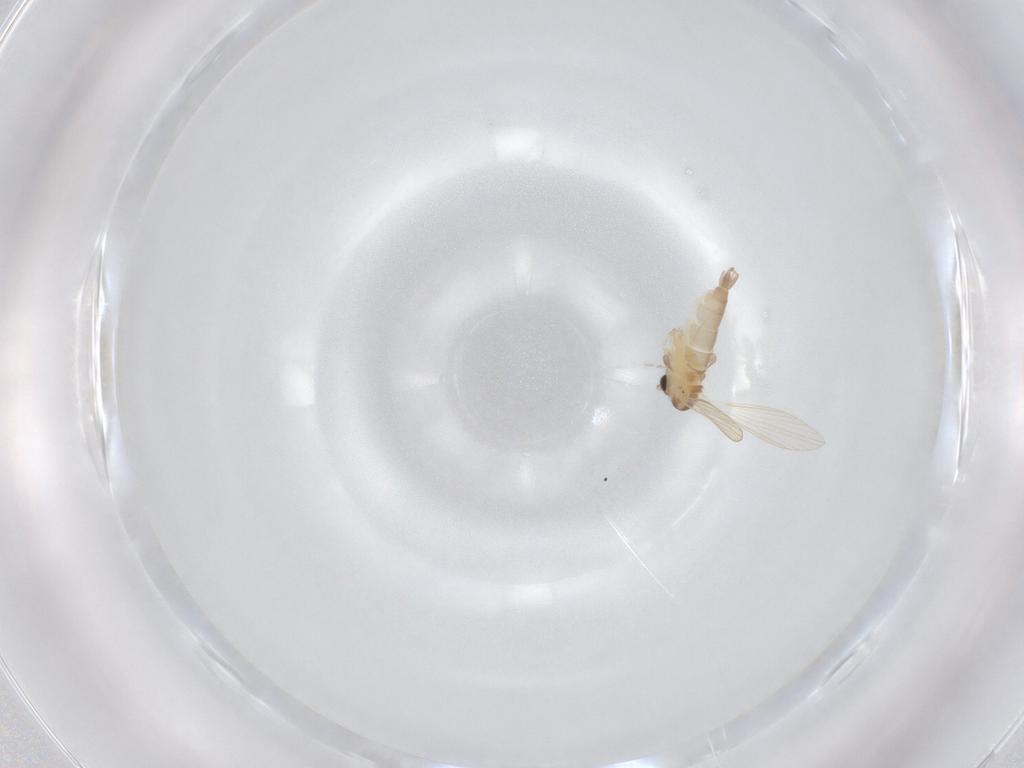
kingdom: Animalia
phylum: Arthropoda
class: Insecta
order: Diptera
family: Psychodidae
